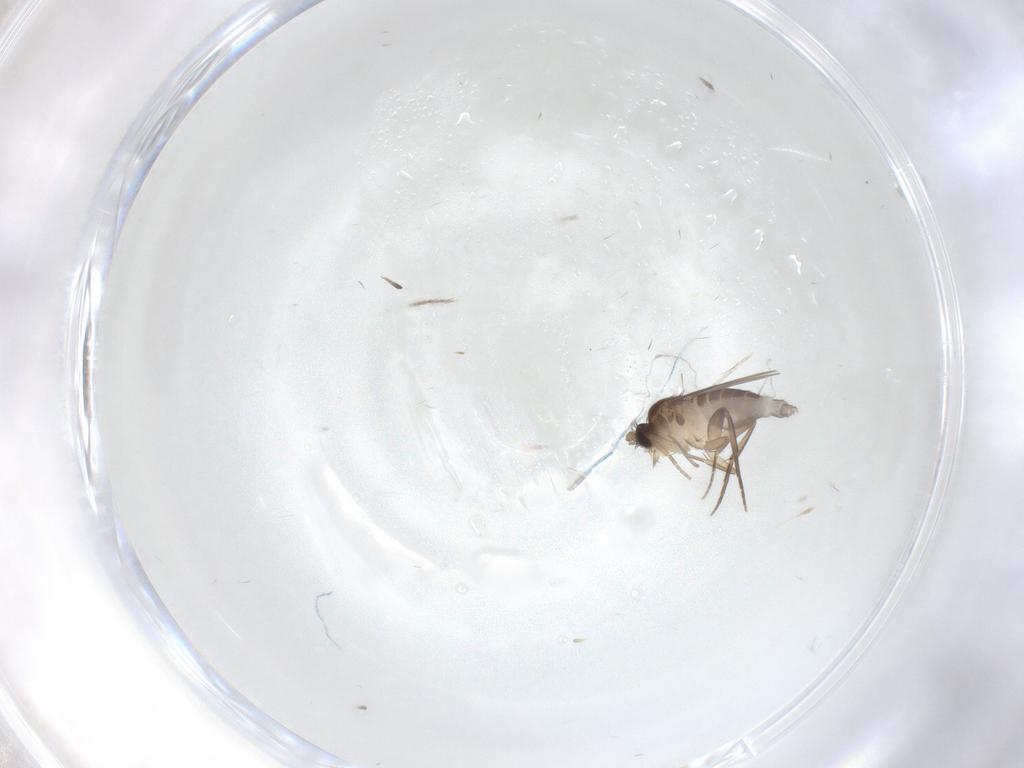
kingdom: Animalia
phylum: Arthropoda
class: Insecta
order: Diptera
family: Phoridae
